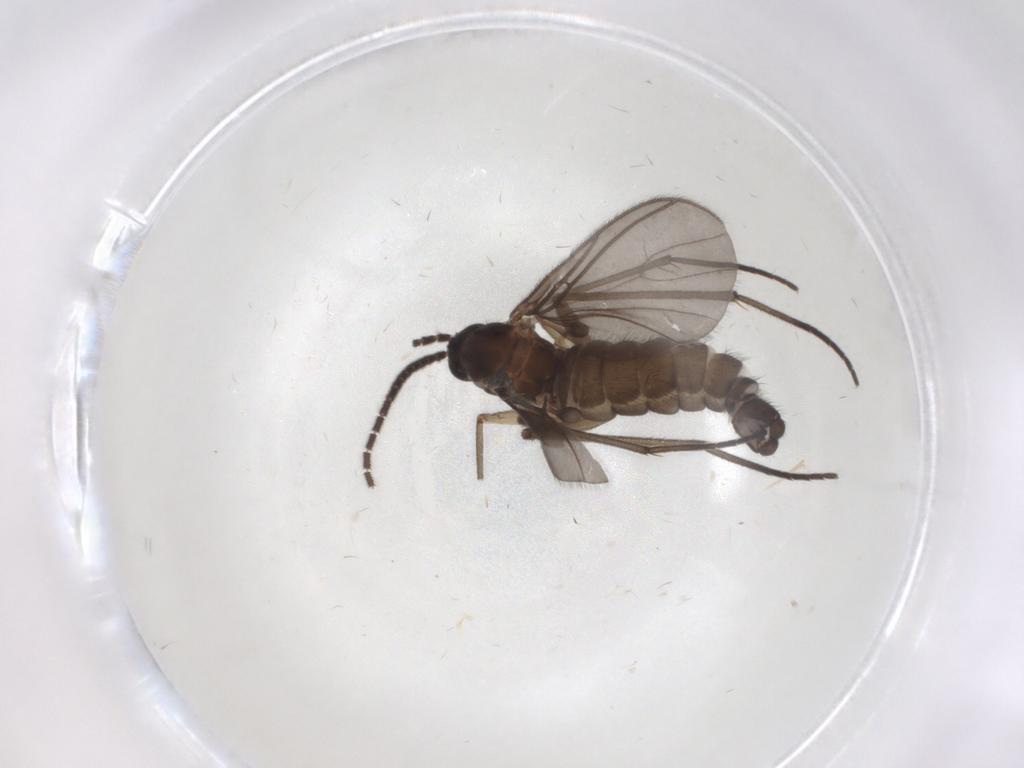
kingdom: Animalia
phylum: Arthropoda
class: Insecta
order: Diptera
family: Sciaridae
